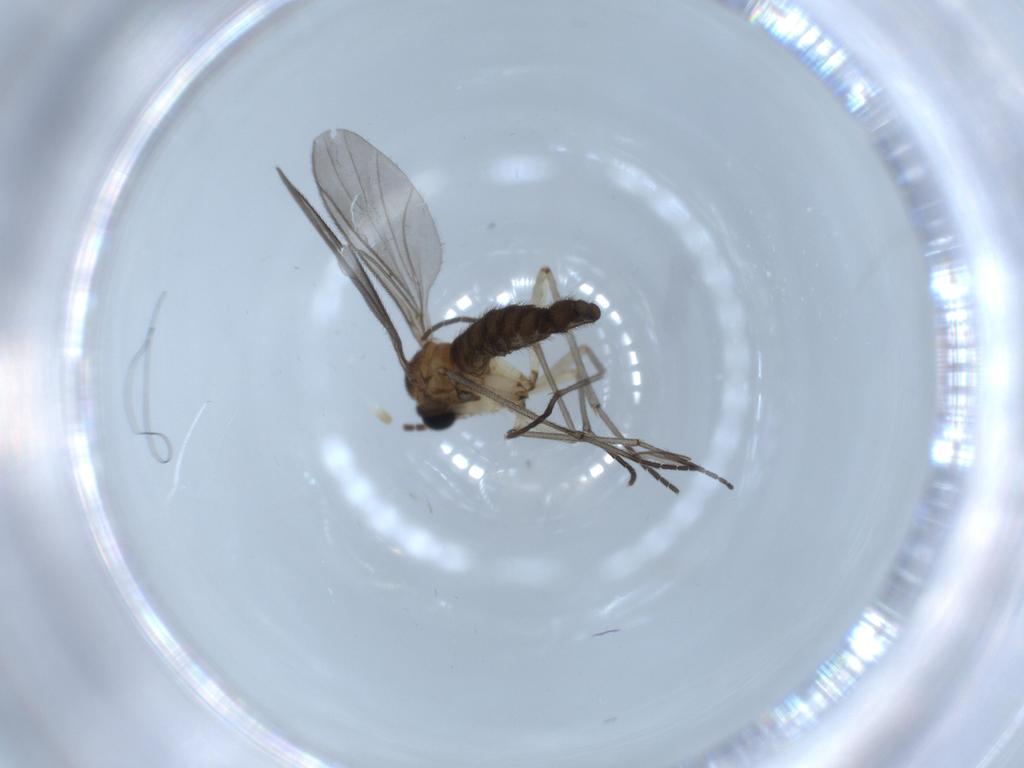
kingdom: Animalia
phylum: Arthropoda
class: Insecta
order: Diptera
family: Sciaridae
